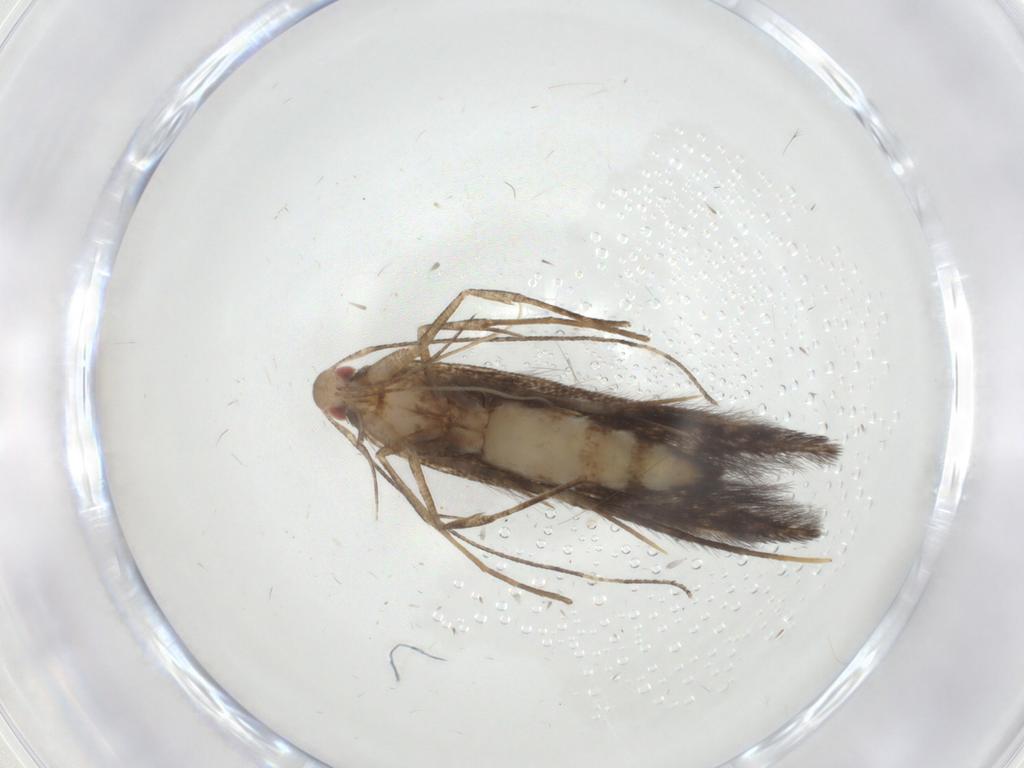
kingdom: Animalia
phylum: Arthropoda
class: Insecta
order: Lepidoptera
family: Cosmopterigidae
